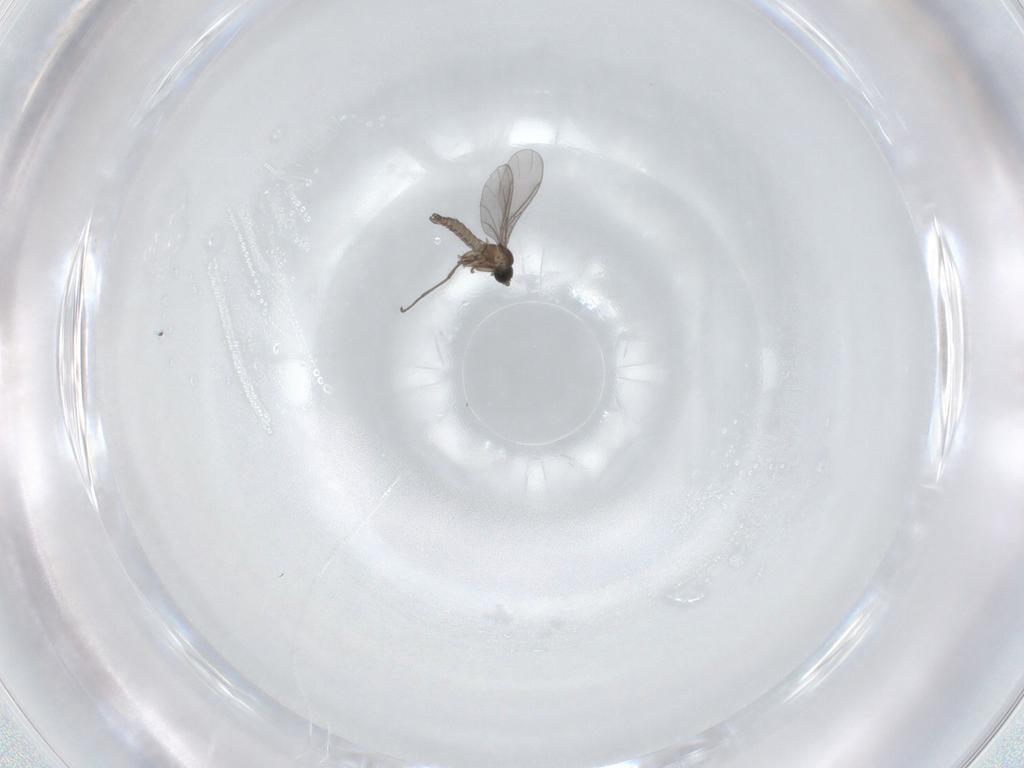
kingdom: Animalia
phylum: Arthropoda
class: Insecta
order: Diptera
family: Sciaridae
